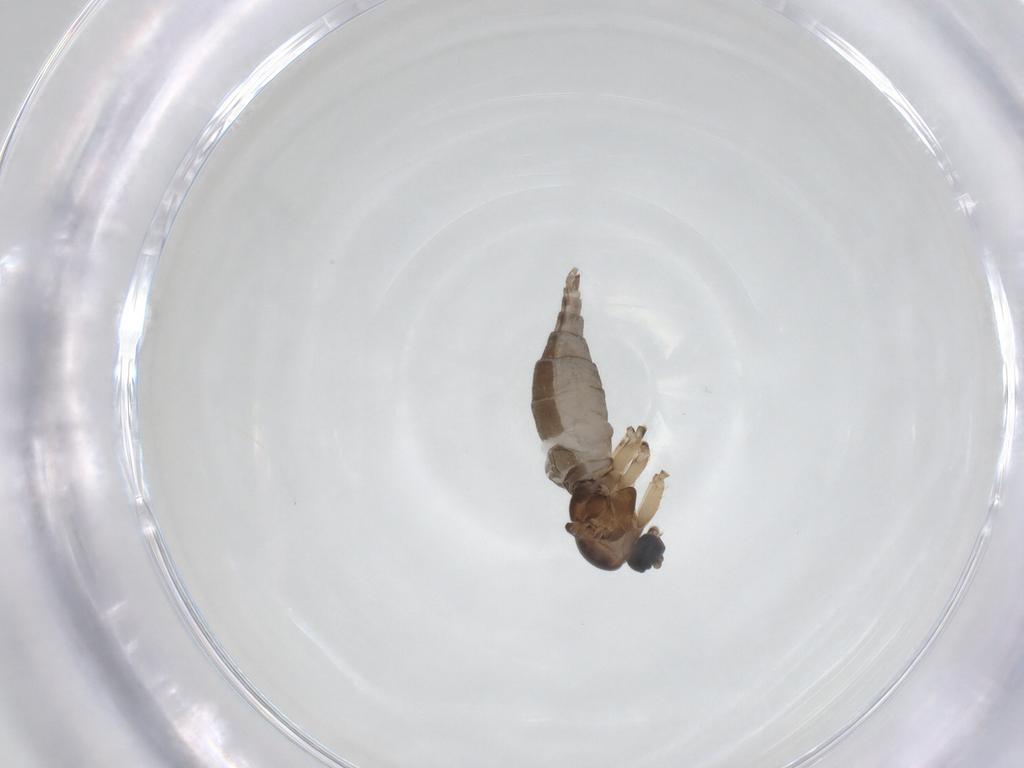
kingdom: Animalia
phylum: Arthropoda
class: Insecta
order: Diptera
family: Sciaridae
